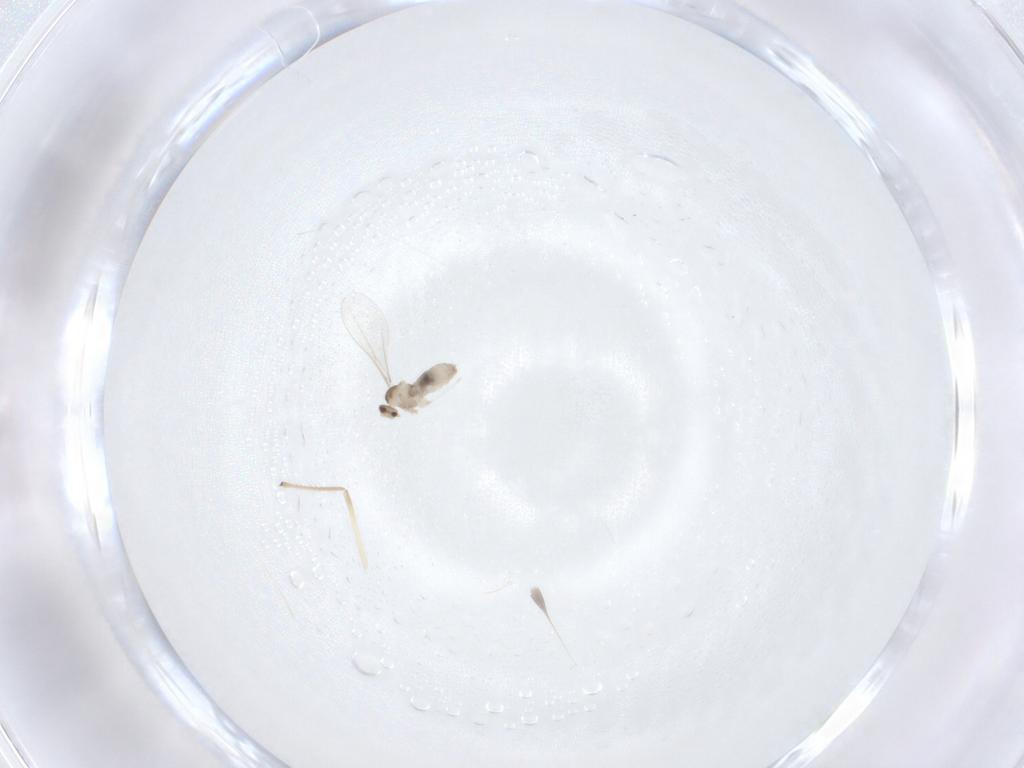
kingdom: Animalia
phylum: Arthropoda
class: Insecta
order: Diptera
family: Cecidomyiidae
